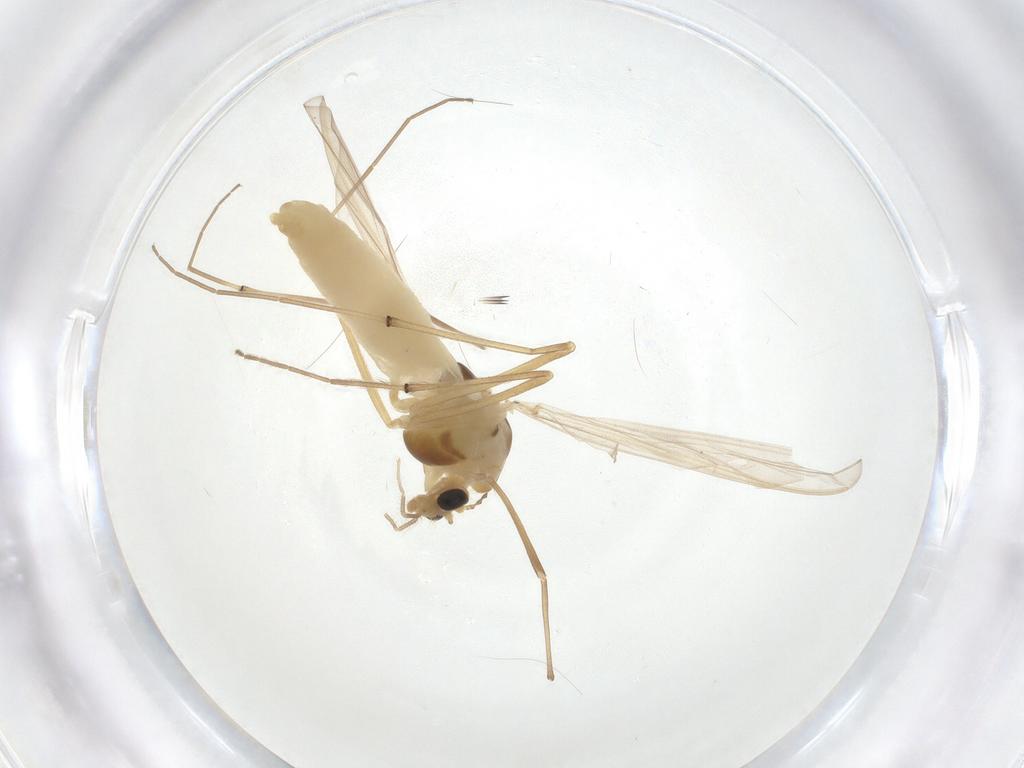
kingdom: Animalia
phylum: Arthropoda
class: Insecta
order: Diptera
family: Chironomidae
